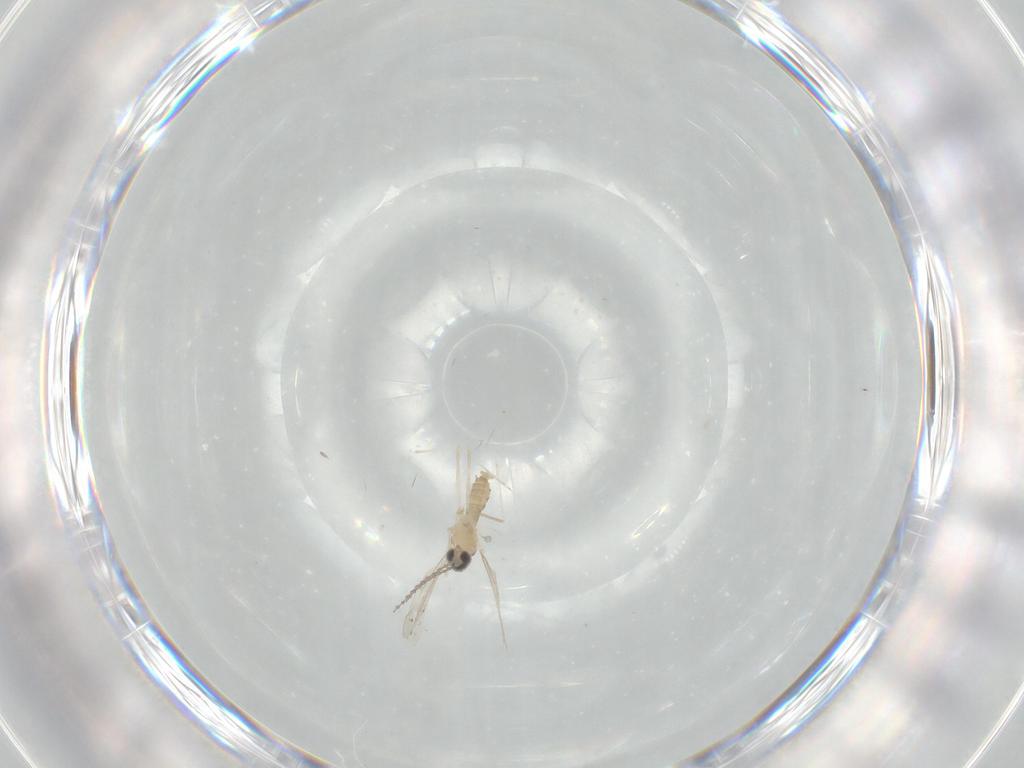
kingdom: Animalia
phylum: Arthropoda
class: Insecta
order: Diptera
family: Cecidomyiidae
